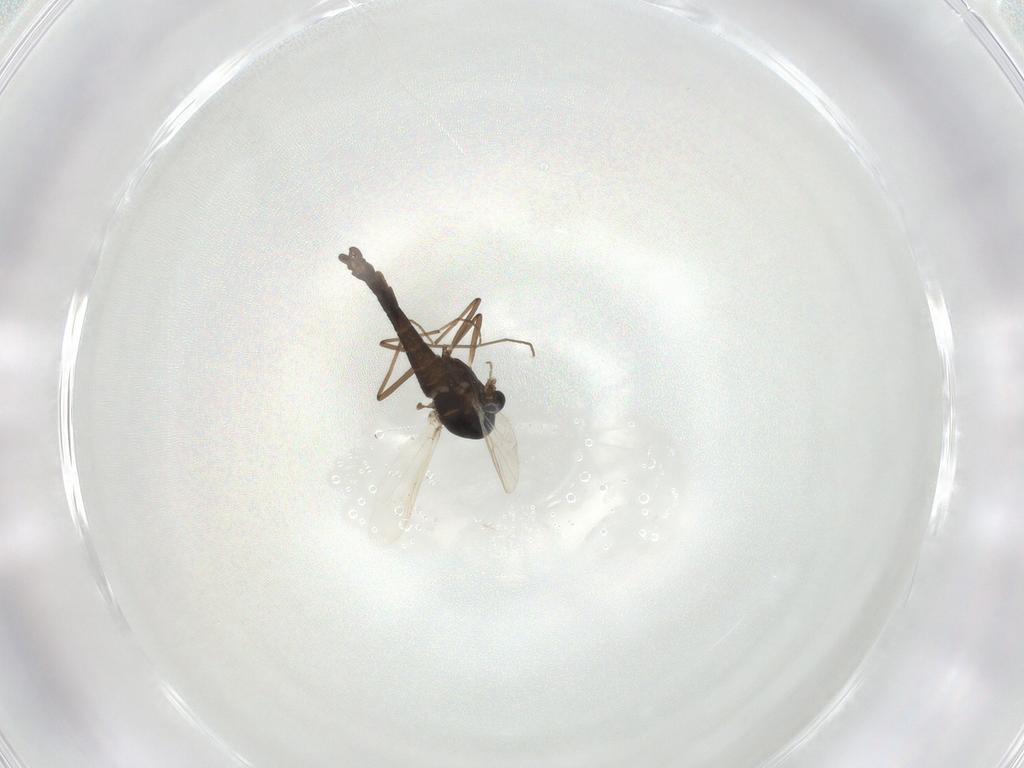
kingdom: Animalia
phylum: Arthropoda
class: Insecta
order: Diptera
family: Chironomidae
